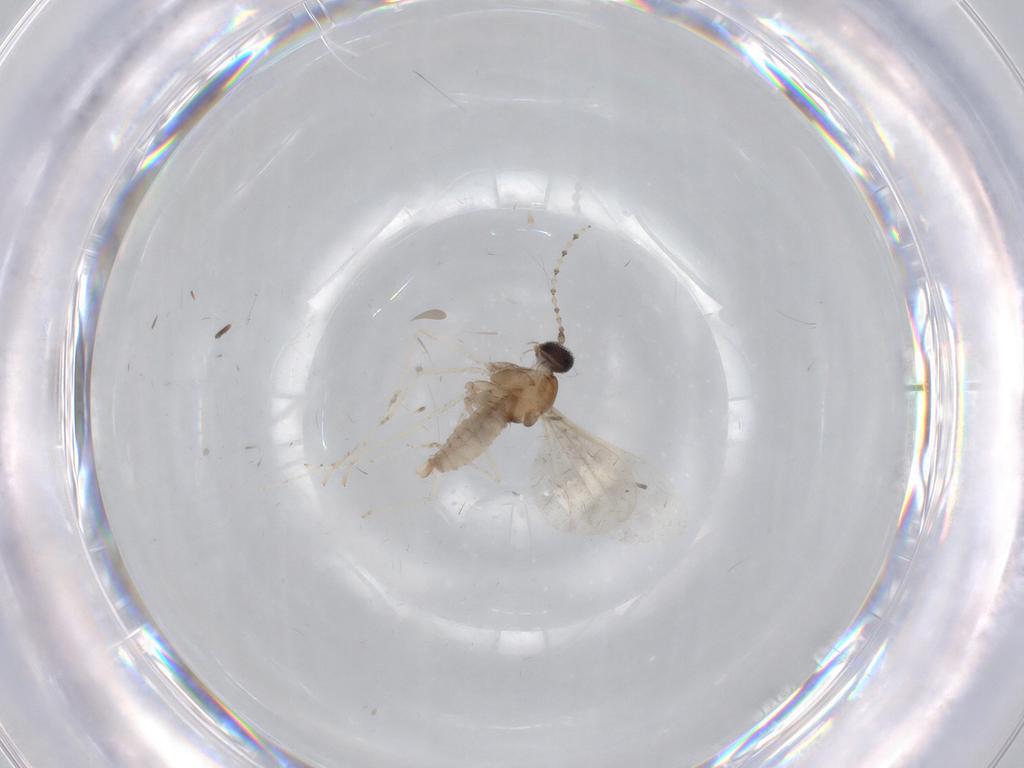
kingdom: Animalia
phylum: Arthropoda
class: Insecta
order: Diptera
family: Cecidomyiidae
